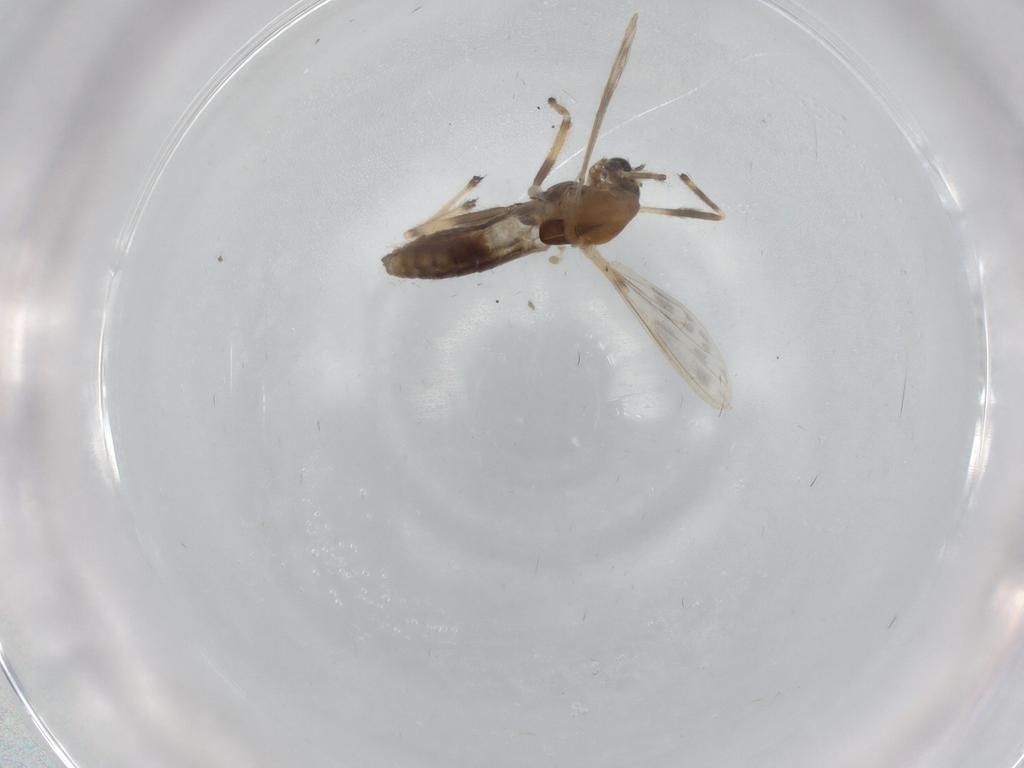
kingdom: Animalia
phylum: Arthropoda
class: Insecta
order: Diptera
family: Chironomidae
